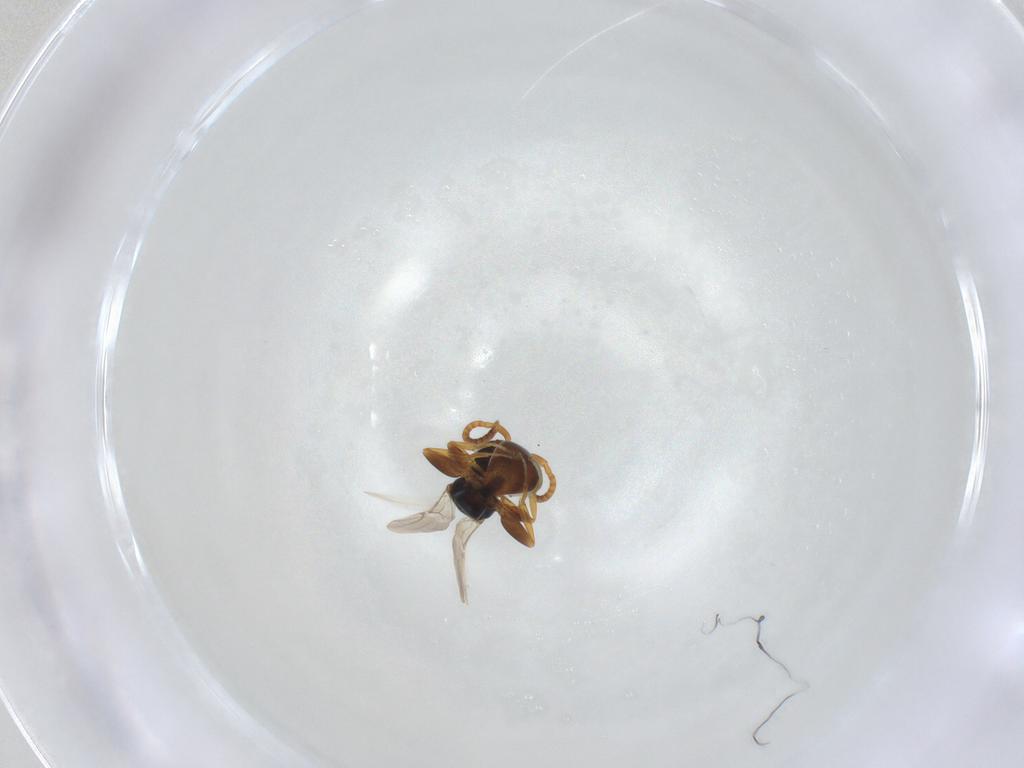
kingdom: Animalia
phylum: Arthropoda
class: Insecta
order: Hymenoptera
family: Bethylidae
